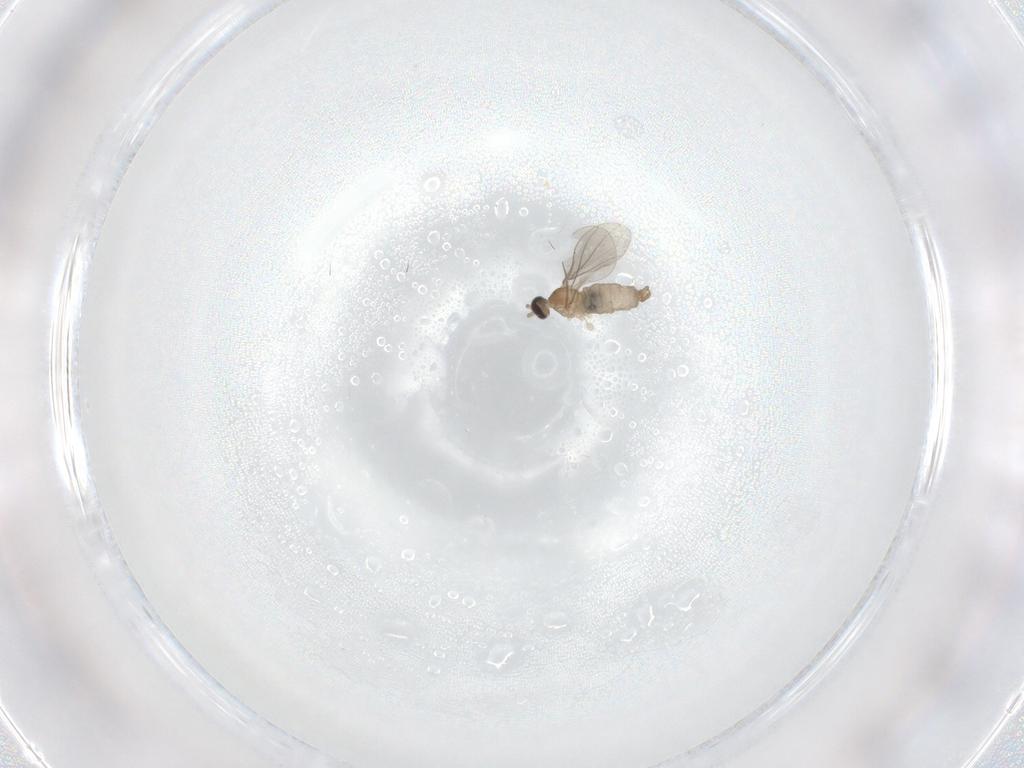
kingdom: Animalia
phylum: Arthropoda
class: Insecta
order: Diptera
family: Cecidomyiidae
